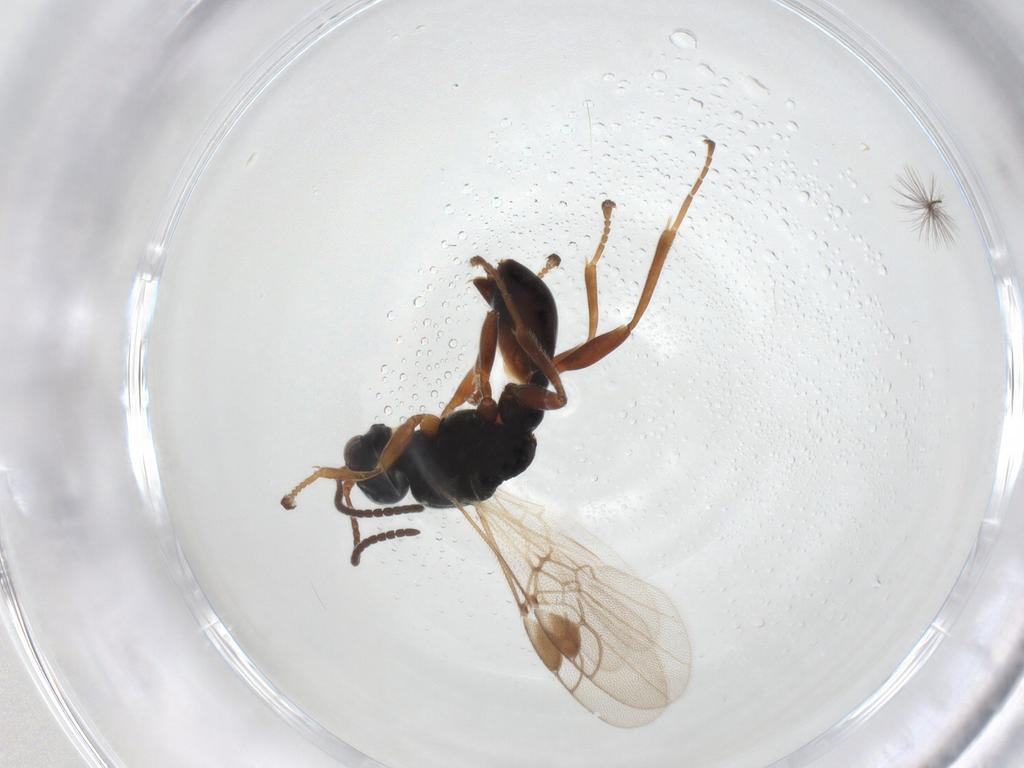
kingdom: Animalia
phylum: Arthropoda
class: Insecta
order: Hymenoptera
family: Braconidae
